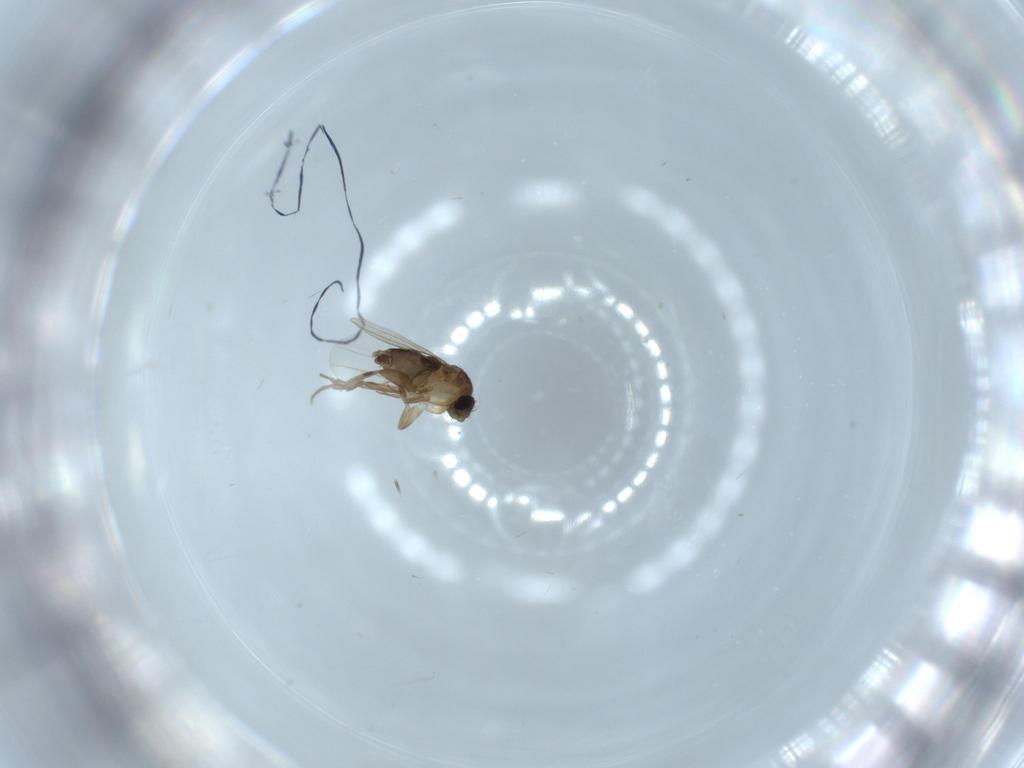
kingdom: Animalia
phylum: Arthropoda
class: Insecta
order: Diptera
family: Phoridae
